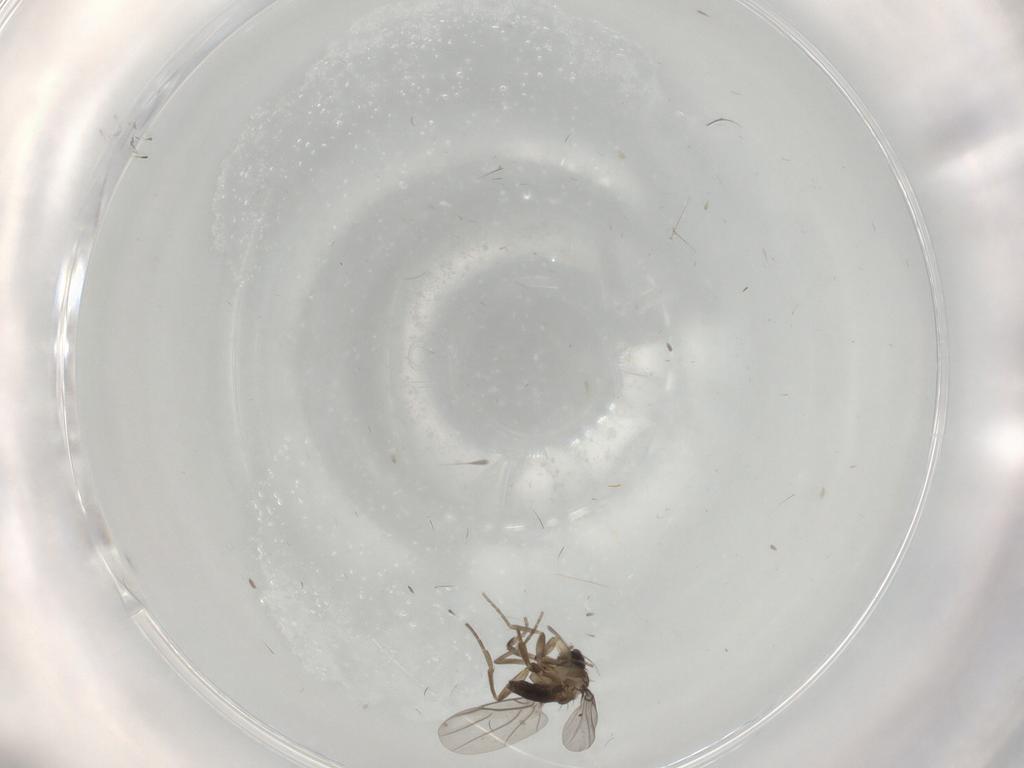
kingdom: Animalia
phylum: Arthropoda
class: Insecta
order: Diptera
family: Phoridae
